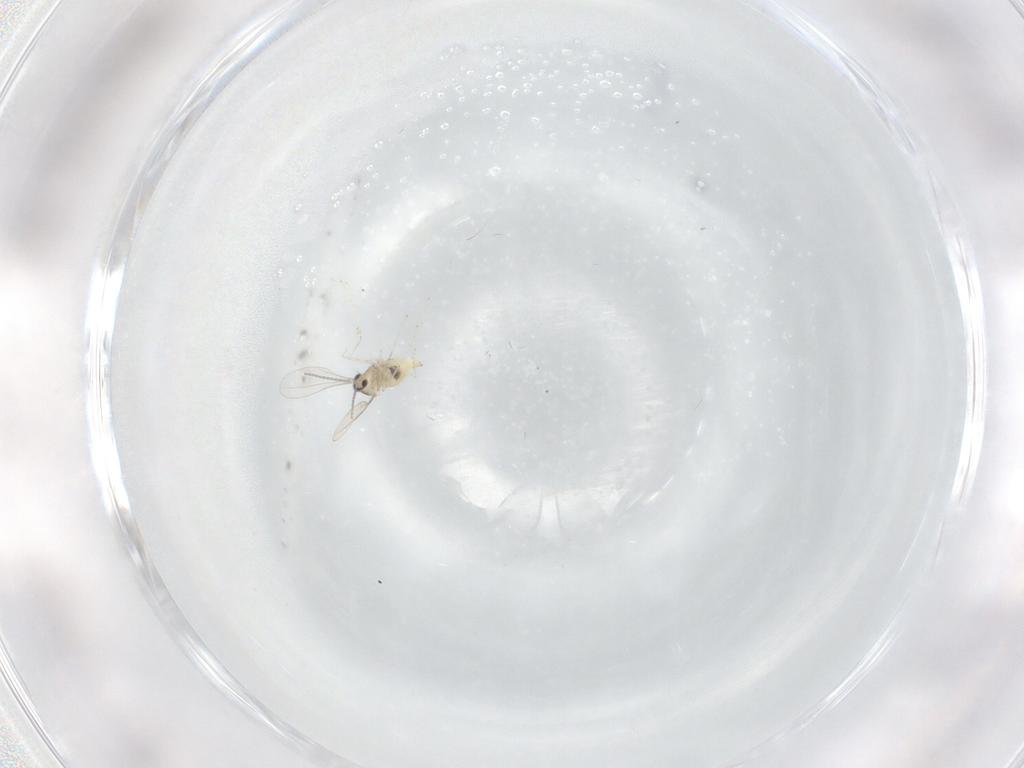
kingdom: Animalia
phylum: Arthropoda
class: Insecta
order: Diptera
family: Cecidomyiidae
